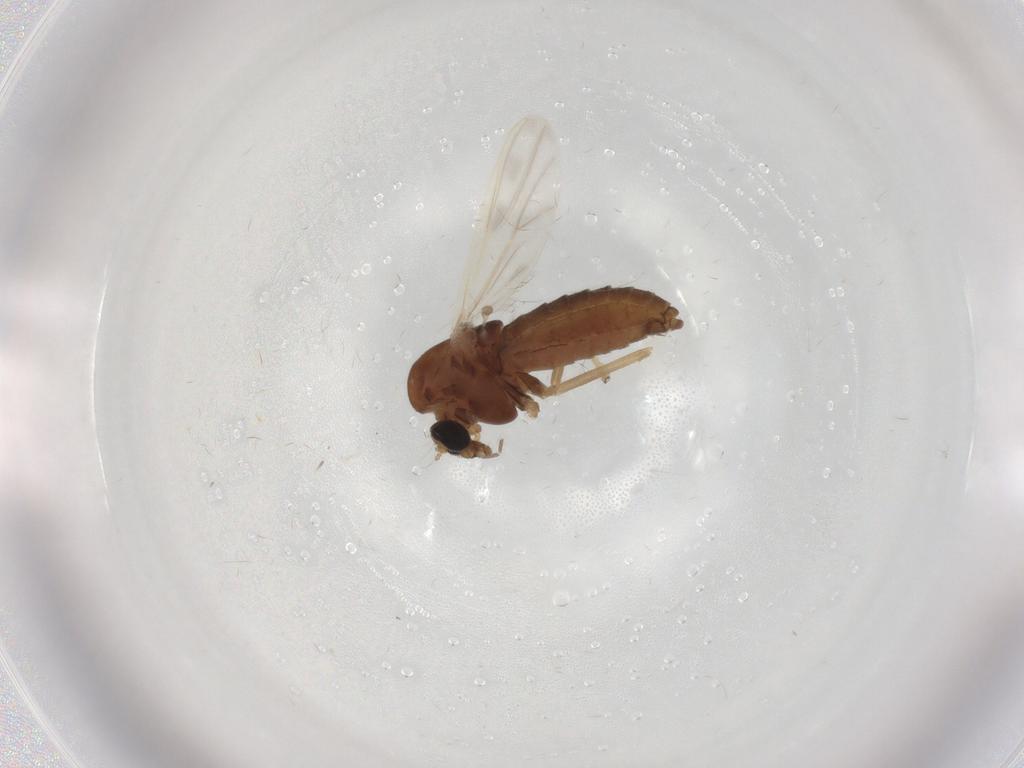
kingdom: Animalia
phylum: Arthropoda
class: Insecta
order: Diptera
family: Chironomidae
